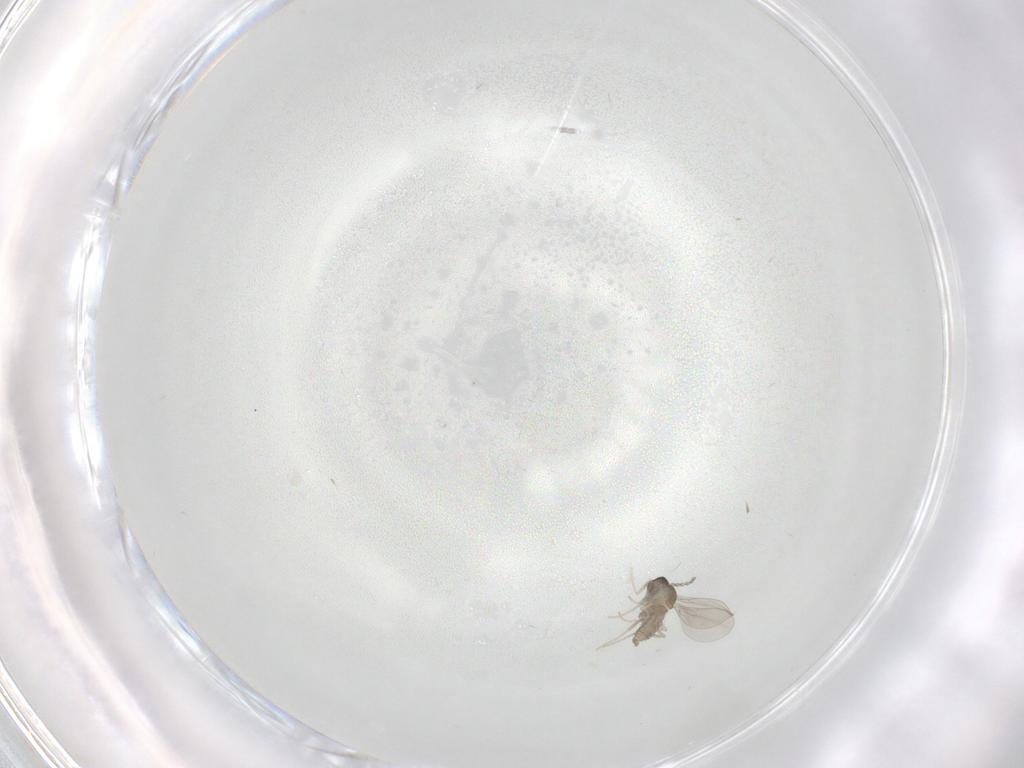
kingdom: Animalia
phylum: Arthropoda
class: Insecta
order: Diptera
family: Cecidomyiidae
